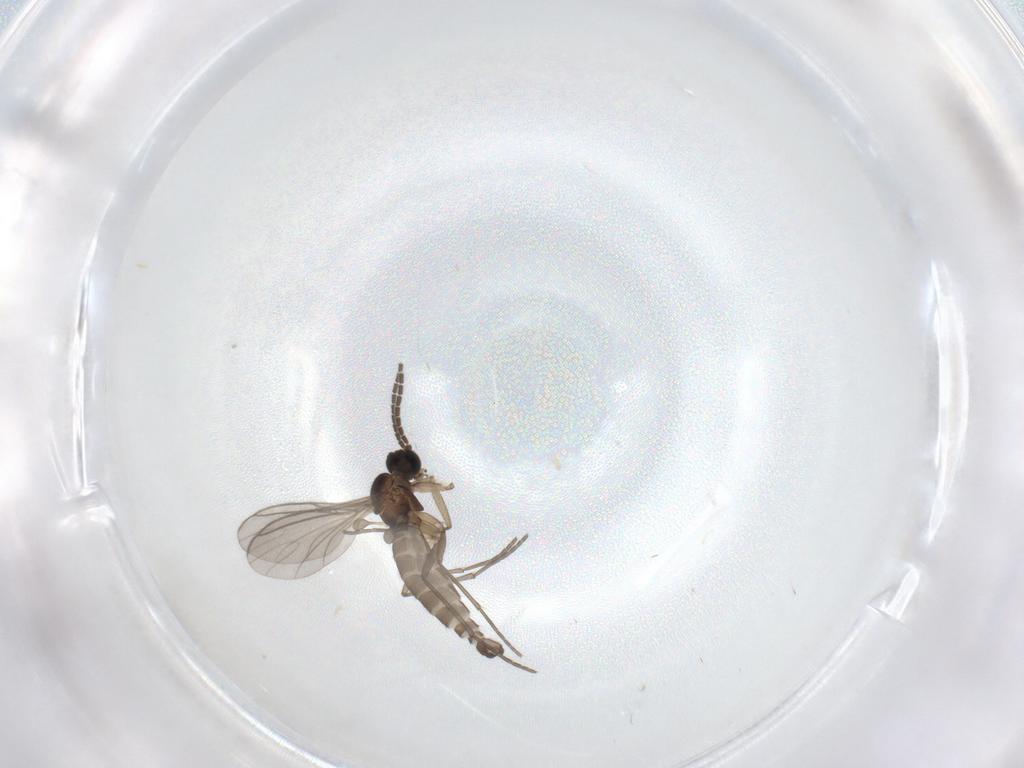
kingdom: Animalia
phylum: Arthropoda
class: Insecta
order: Diptera
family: Sciaridae
